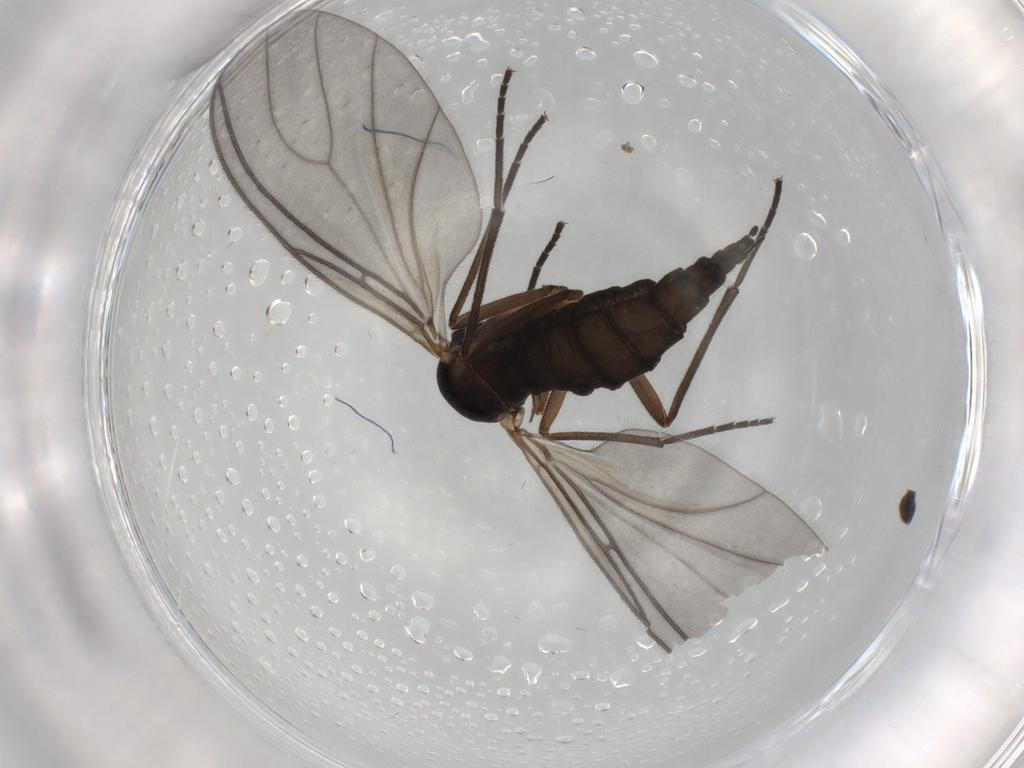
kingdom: Animalia
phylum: Arthropoda
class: Insecta
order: Diptera
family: Sciaridae
